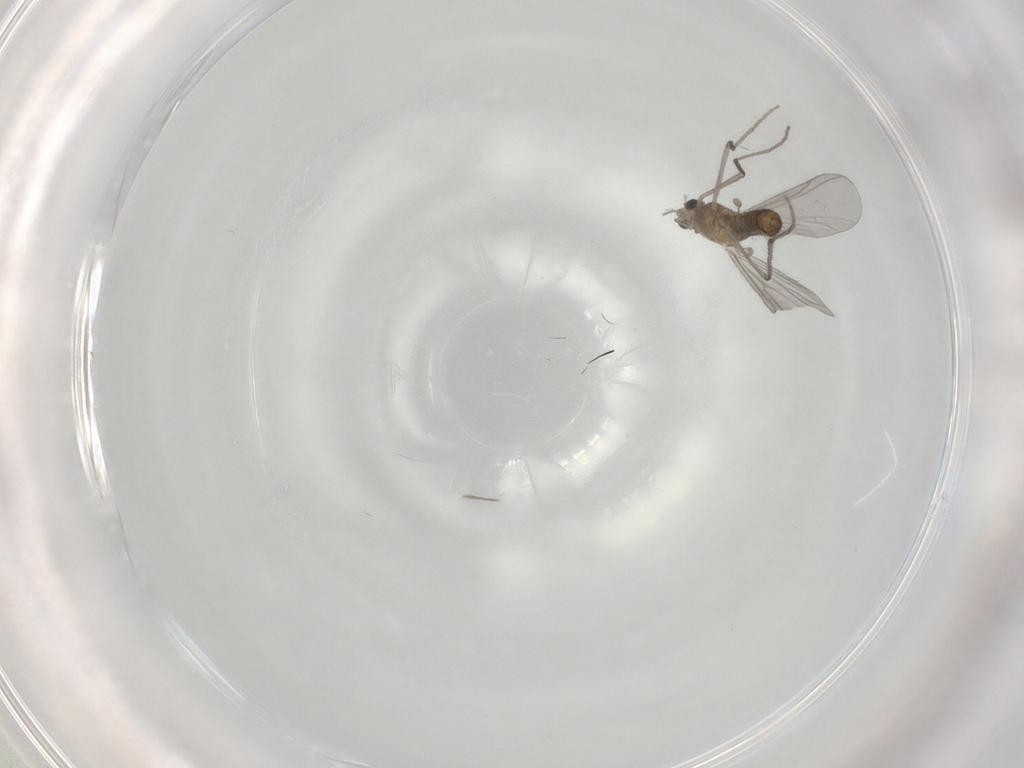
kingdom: Animalia
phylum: Arthropoda
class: Insecta
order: Diptera
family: Chironomidae
